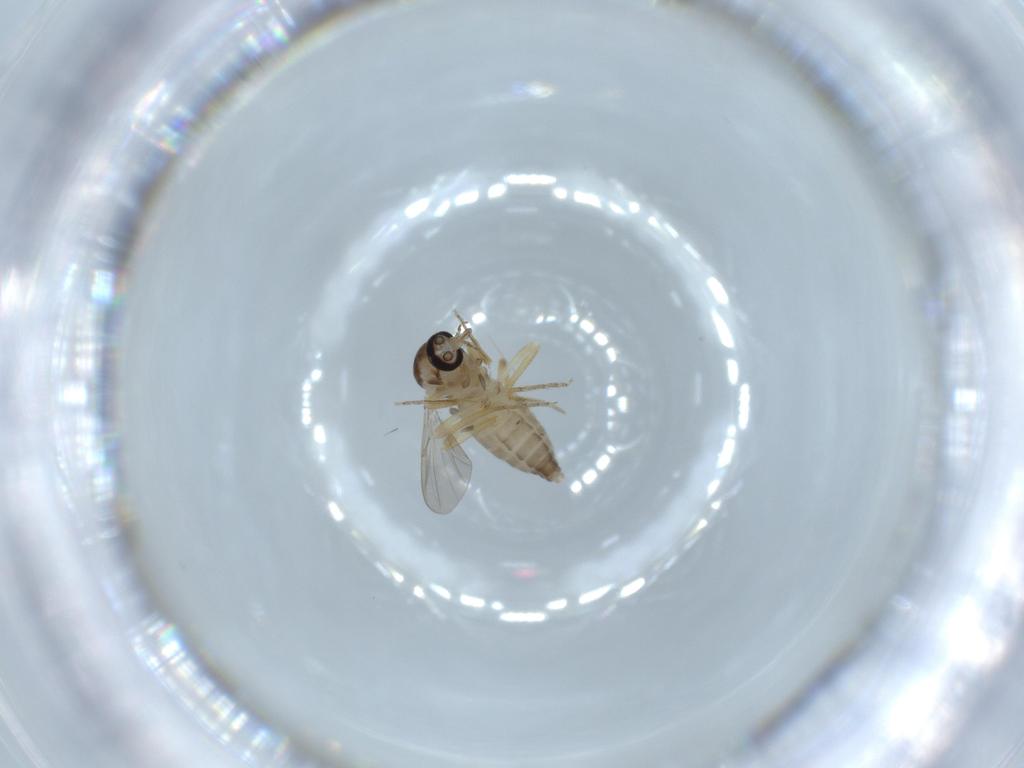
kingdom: Animalia
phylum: Arthropoda
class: Insecta
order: Diptera
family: Ceratopogonidae
